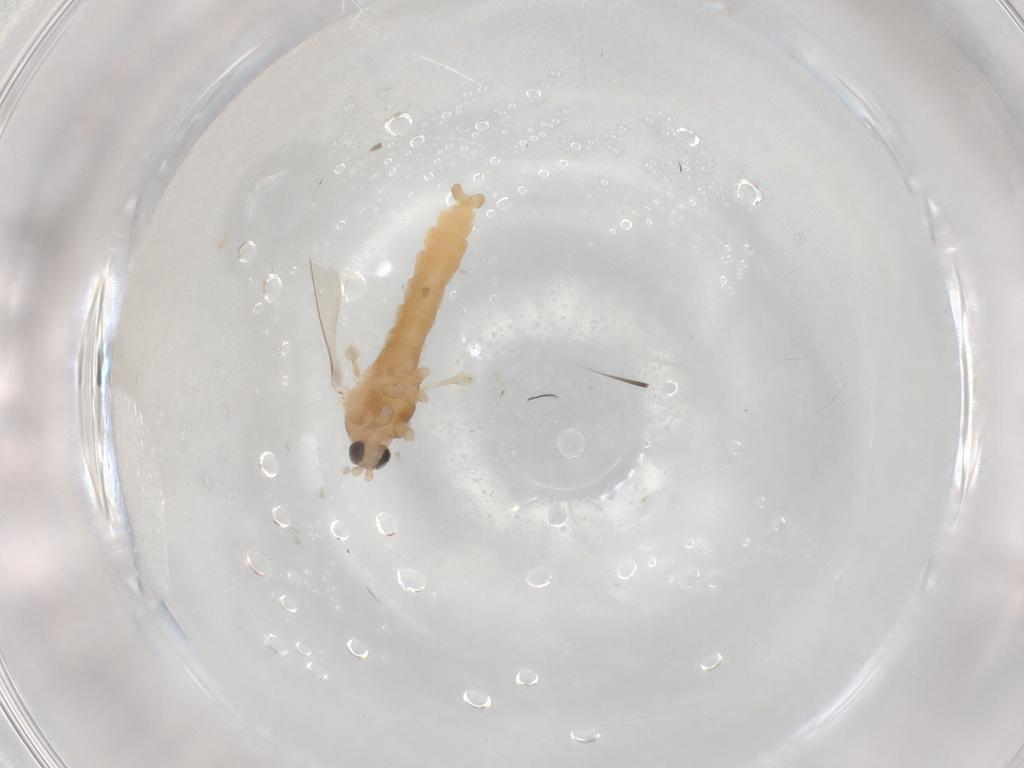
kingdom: Animalia
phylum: Arthropoda
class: Insecta
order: Diptera
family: Cecidomyiidae
